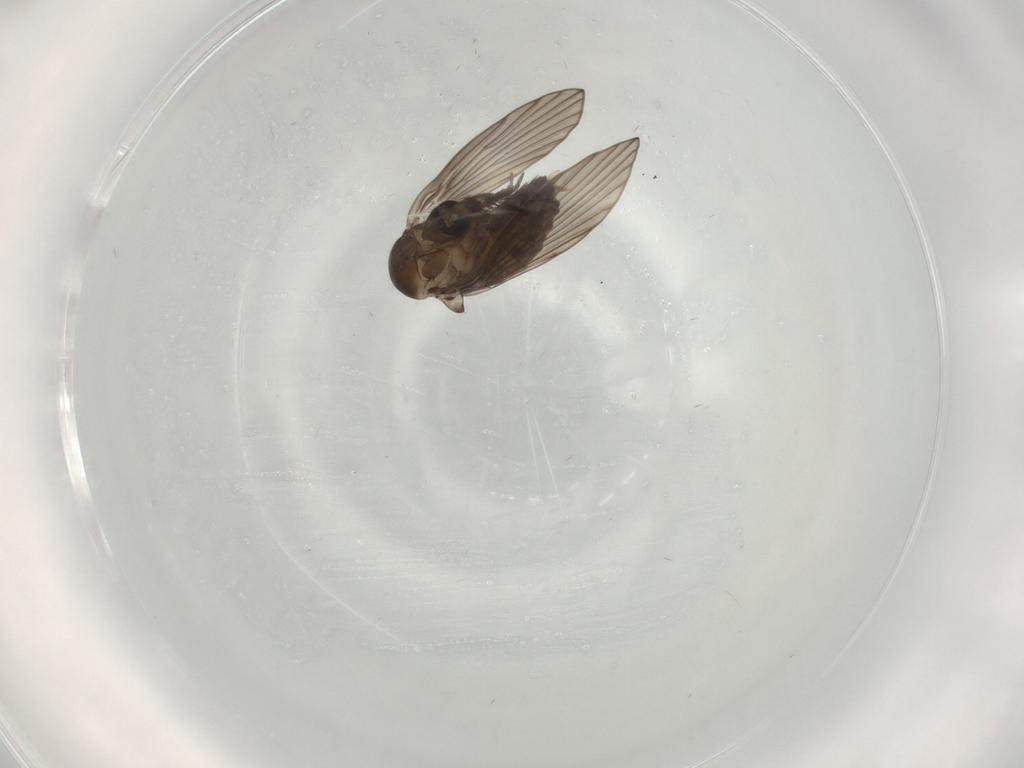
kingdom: Animalia
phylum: Arthropoda
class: Insecta
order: Diptera
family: Psychodidae
